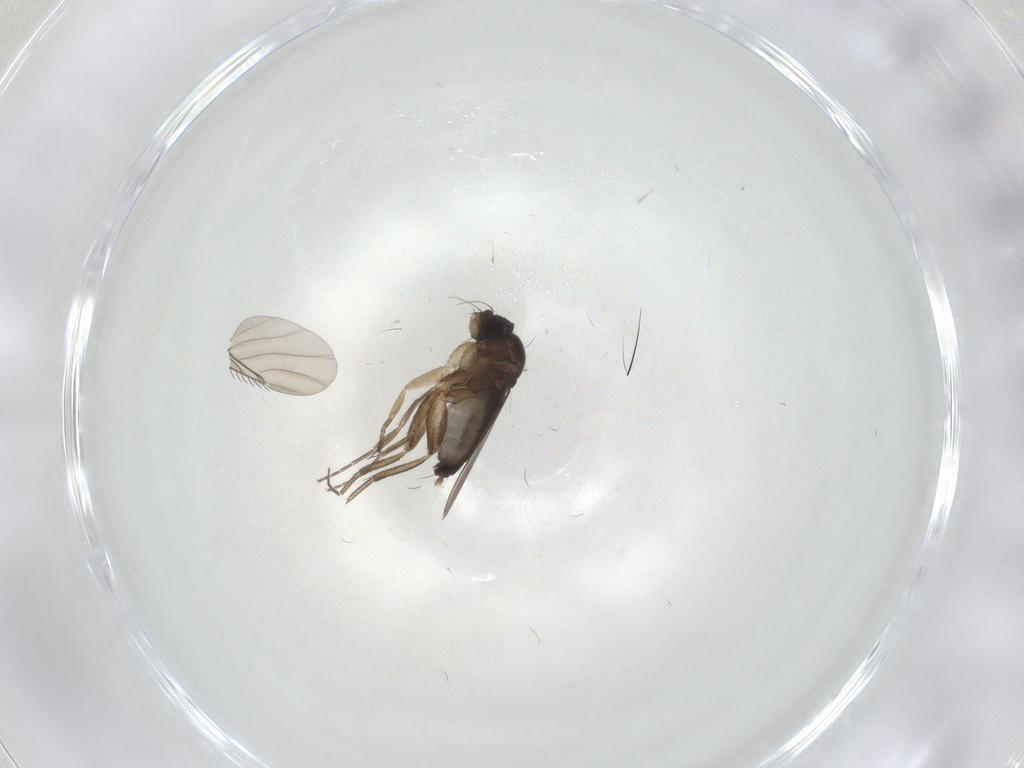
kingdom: Animalia
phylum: Arthropoda
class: Insecta
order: Diptera
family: Phoridae
